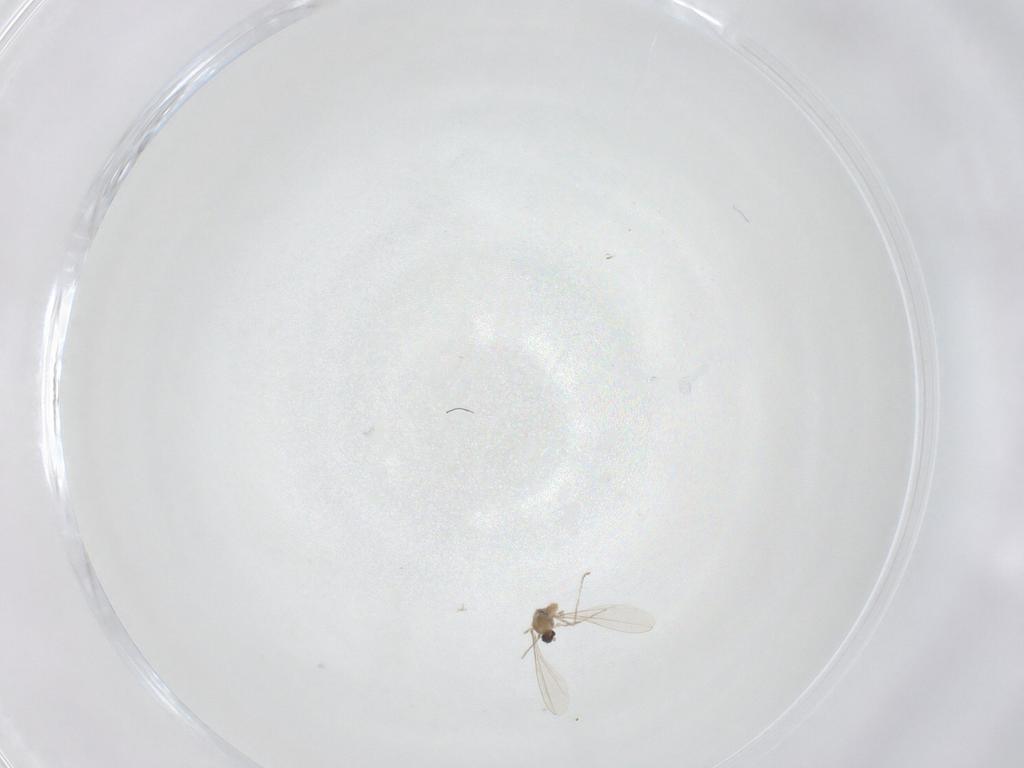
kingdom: Animalia
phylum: Arthropoda
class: Insecta
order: Diptera
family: Cecidomyiidae
